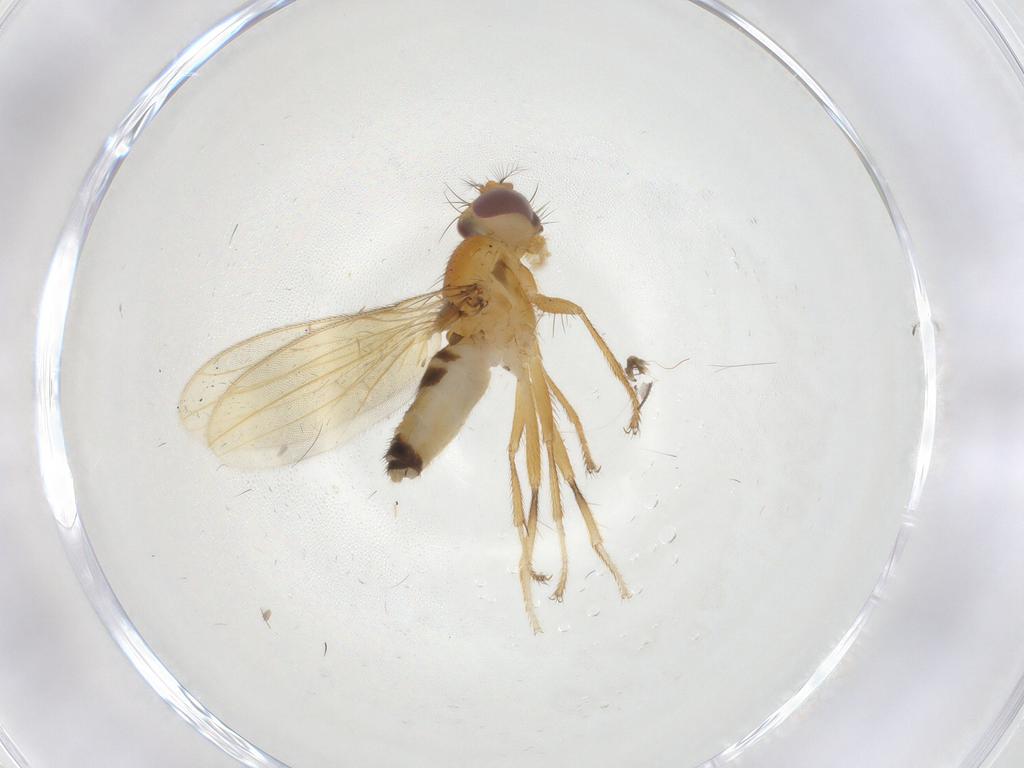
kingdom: Animalia
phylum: Arthropoda
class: Insecta
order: Diptera
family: Periscelididae
